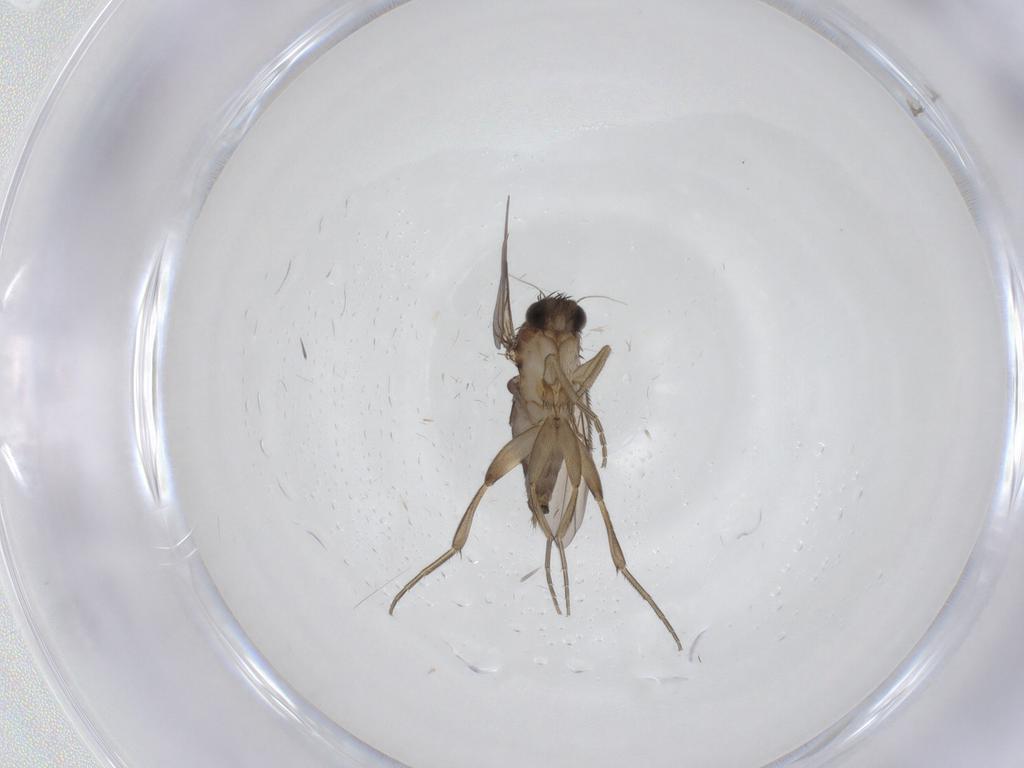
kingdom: Animalia
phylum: Arthropoda
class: Insecta
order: Diptera
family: Phoridae
